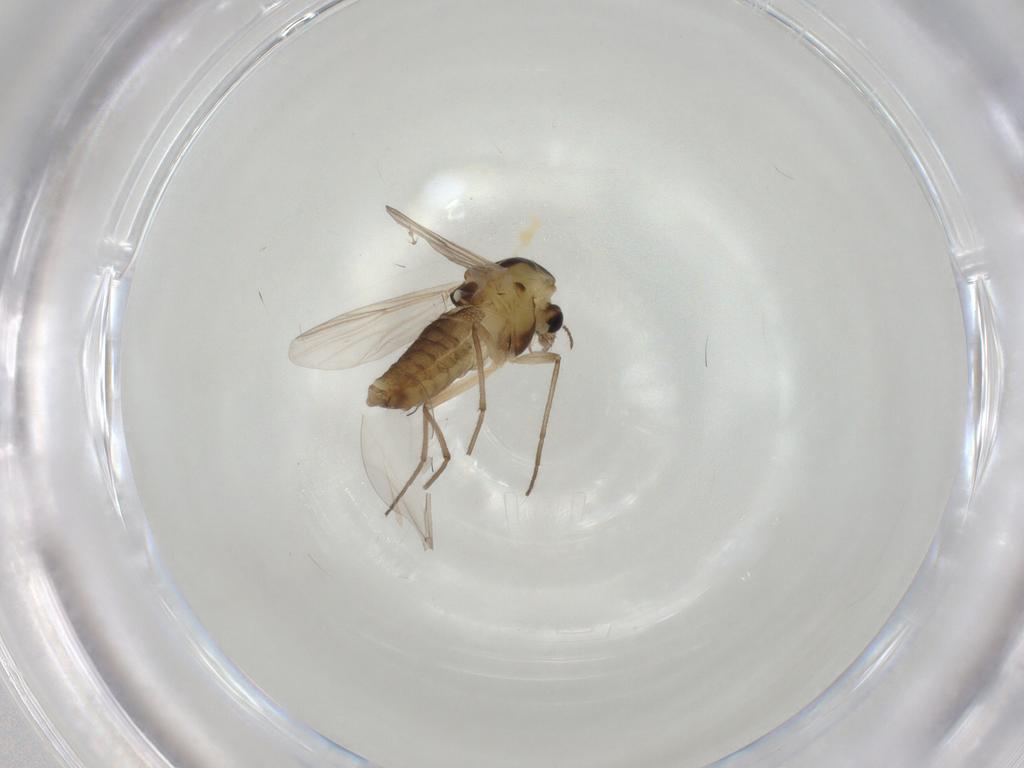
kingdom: Animalia
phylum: Arthropoda
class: Insecta
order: Diptera
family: Chironomidae
